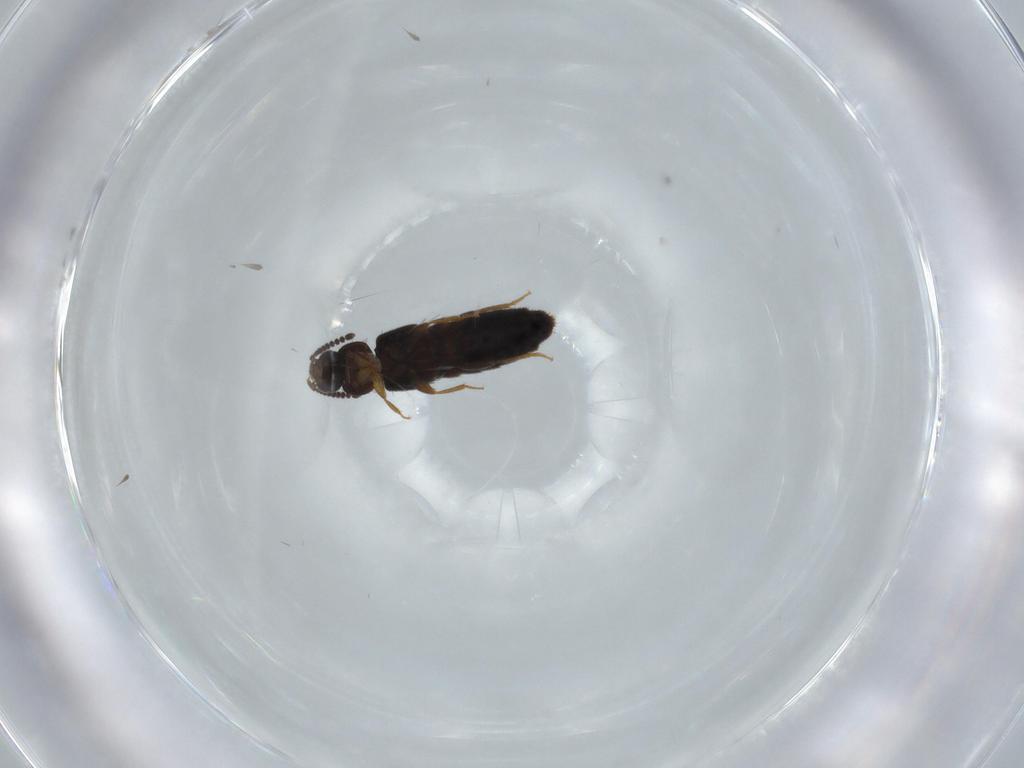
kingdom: Animalia
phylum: Arthropoda
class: Insecta
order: Coleoptera
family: Staphylinidae
